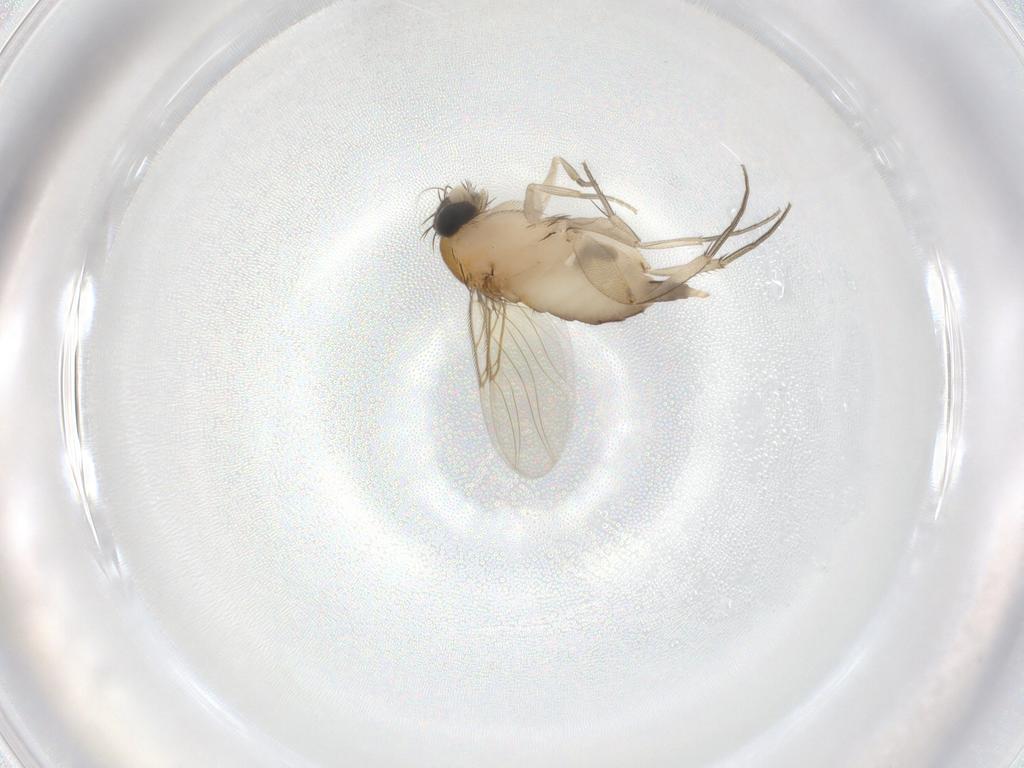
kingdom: Animalia
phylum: Arthropoda
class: Insecta
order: Diptera
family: Phoridae
